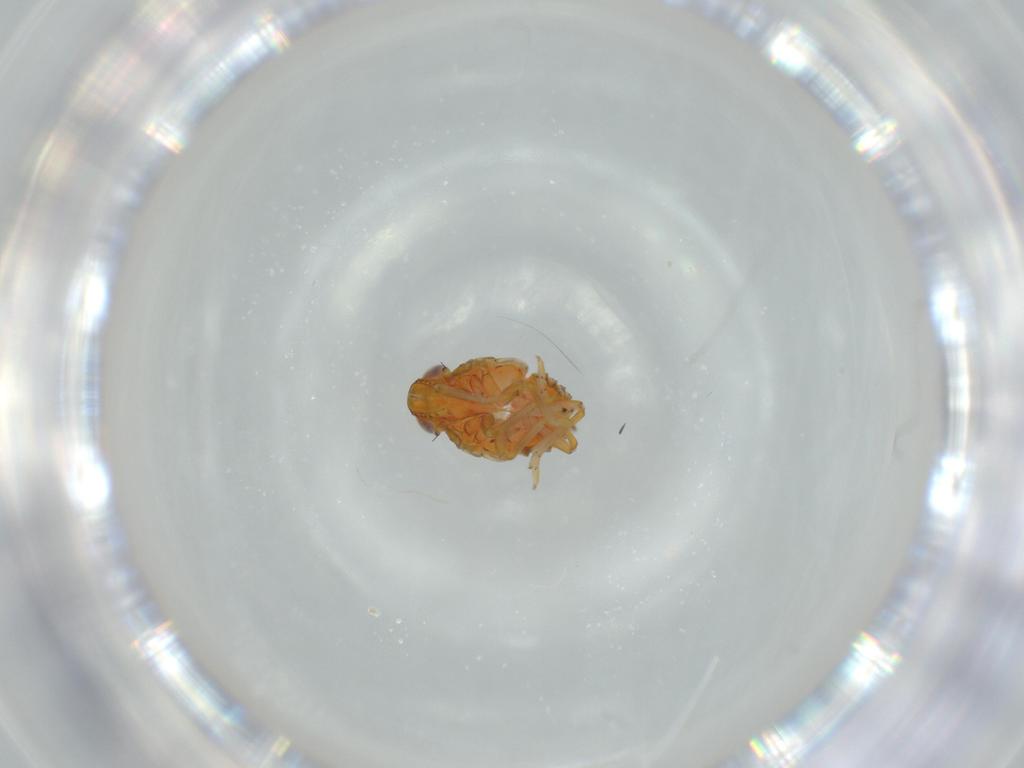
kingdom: Animalia
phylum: Arthropoda
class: Insecta
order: Hemiptera
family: Issidae
